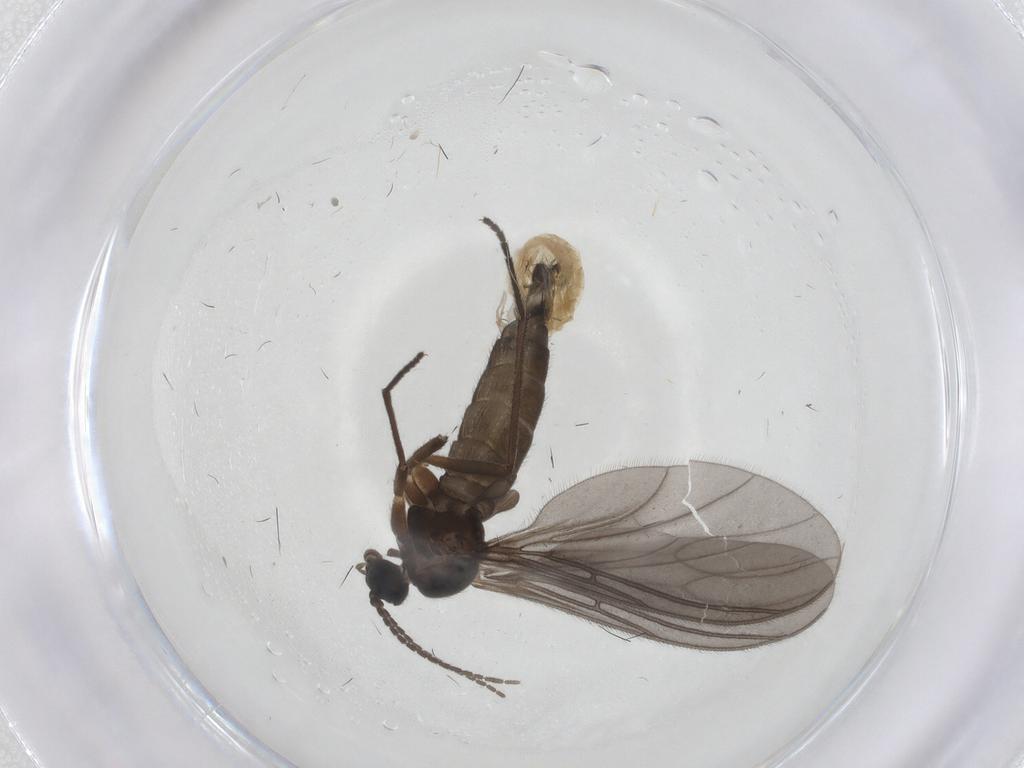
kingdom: Animalia
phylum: Arthropoda
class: Insecta
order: Diptera
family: Sciaridae
